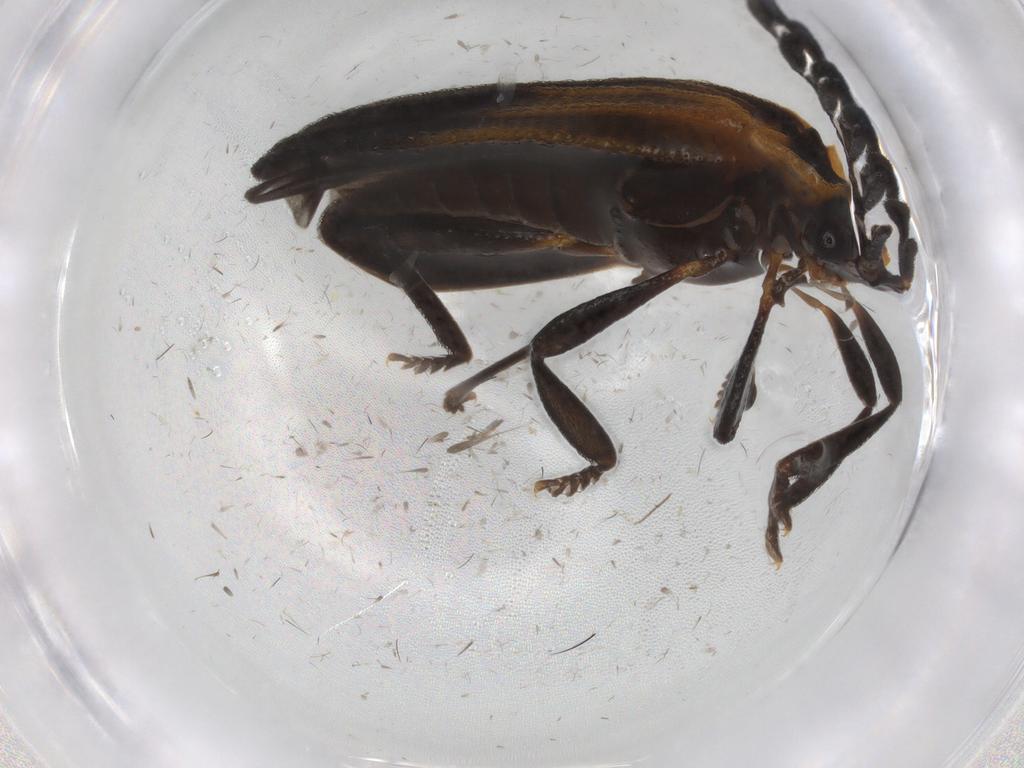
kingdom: Animalia
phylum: Arthropoda
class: Insecta
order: Coleoptera
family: Lycidae
